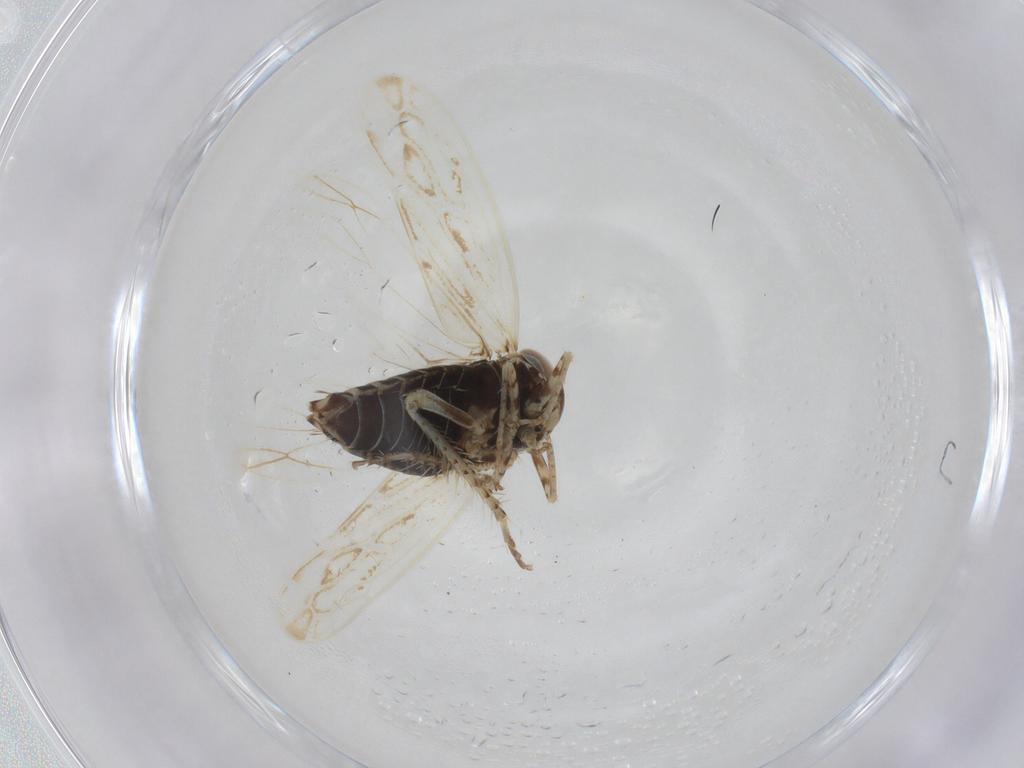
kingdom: Animalia
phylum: Arthropoda
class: Insecta
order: Hemiptera
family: Cicadellidae
